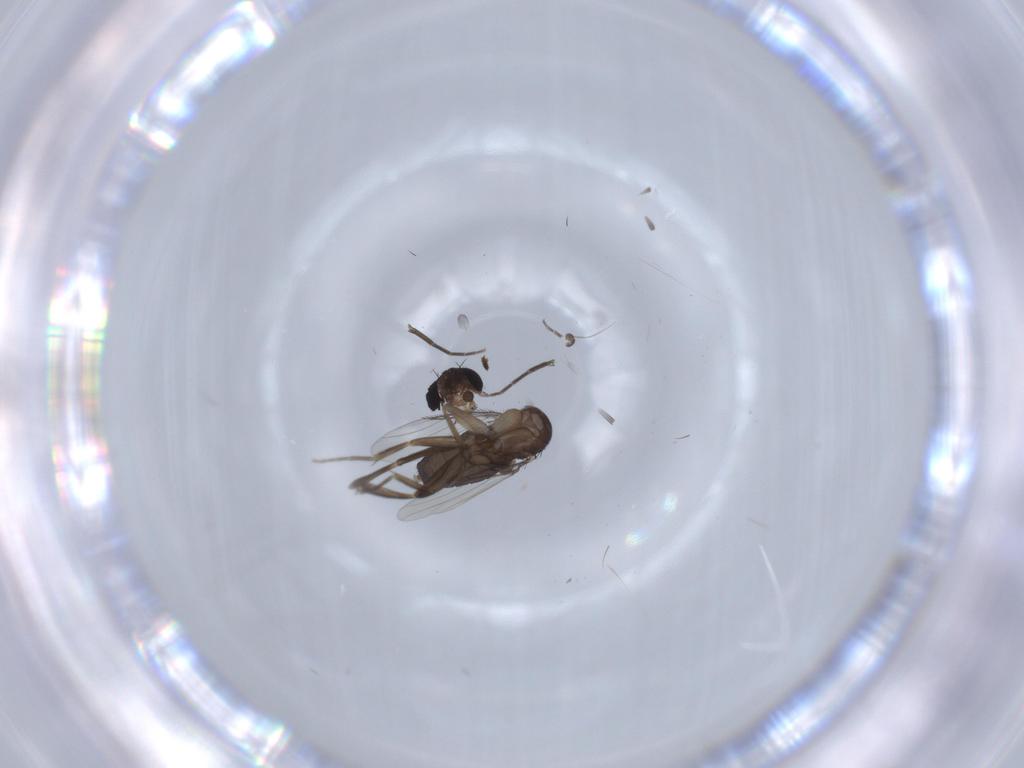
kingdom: Animalia
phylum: Arthropoda
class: Insecta
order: Diptera
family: Phoridae
